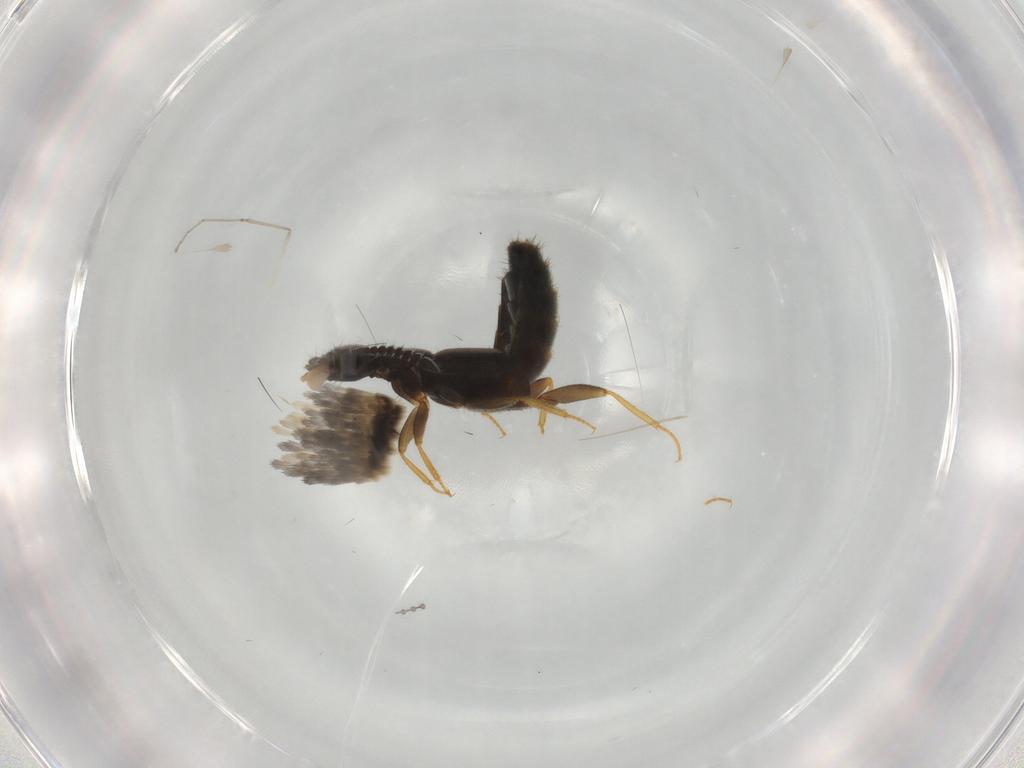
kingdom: Animalia
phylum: Arthropoda
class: Insecta
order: Coleoptera
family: Staphylinidae
